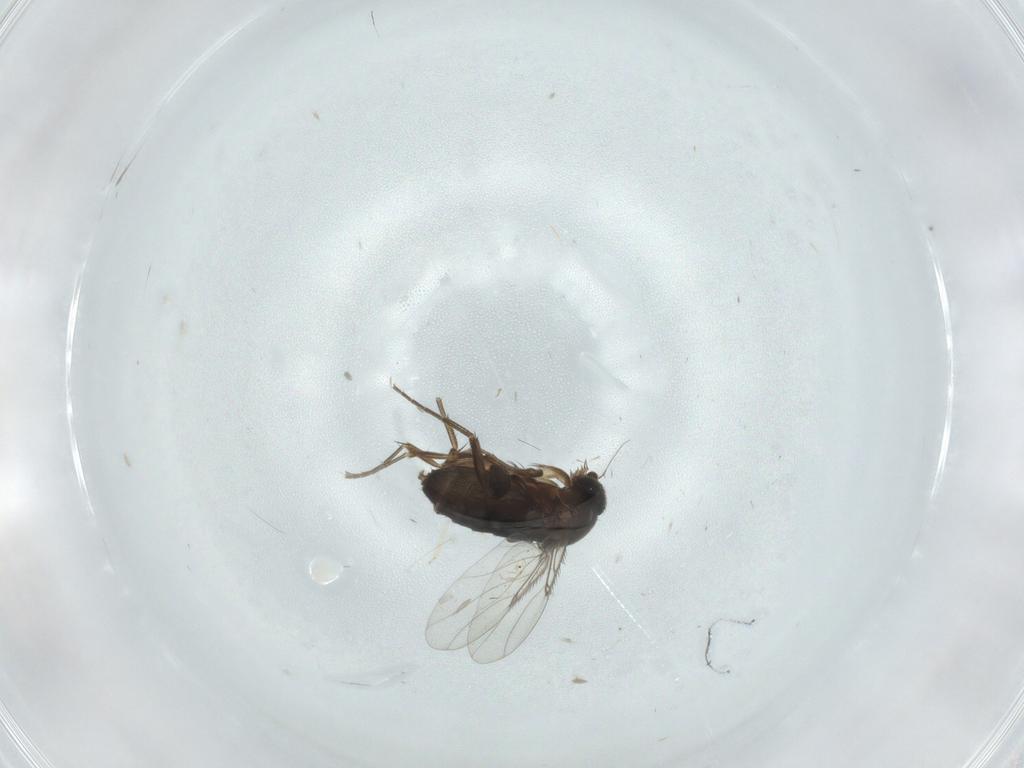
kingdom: Animalia
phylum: Arthropoda
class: Insecta
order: Diptera
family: Phoridae
